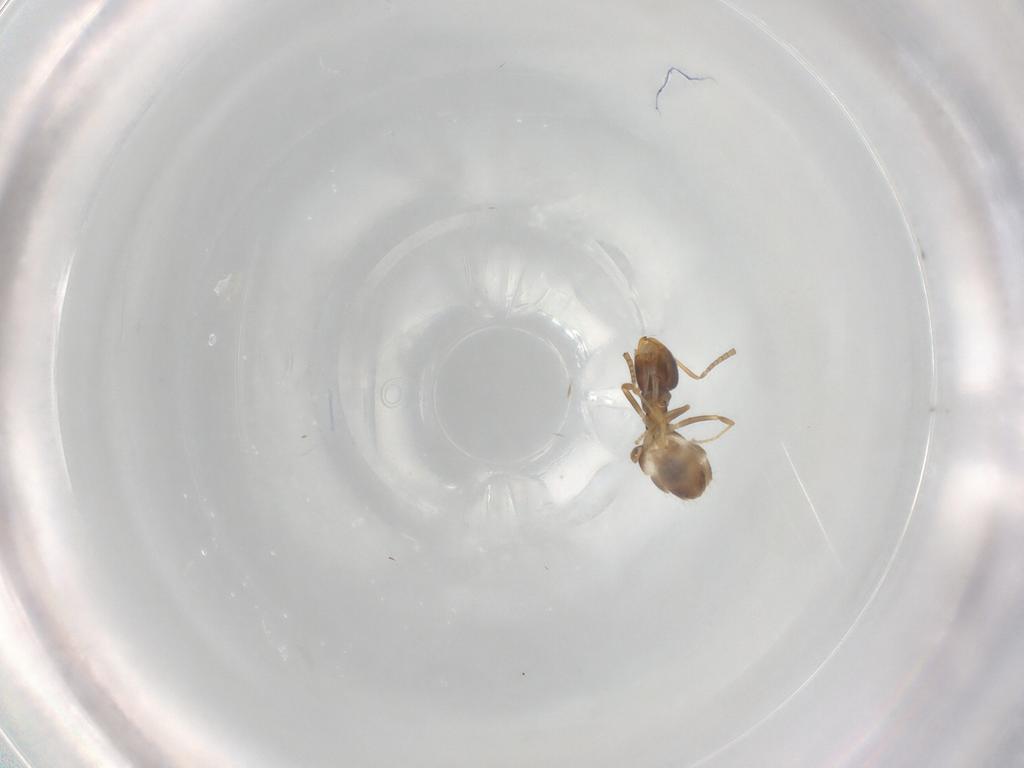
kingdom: Animalia
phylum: Arthropoda
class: Insecta
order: Hymenoptera
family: Formicidae
